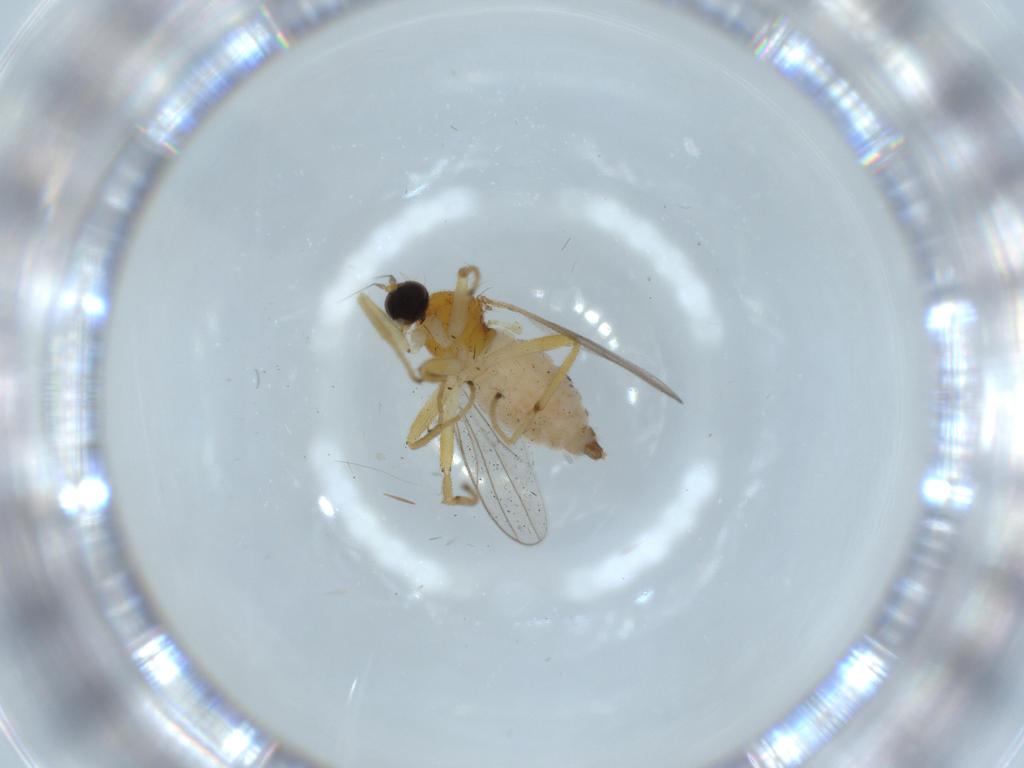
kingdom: Animalia
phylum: Arthropoda
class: Insecta
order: Diptera
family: Hybotidae
